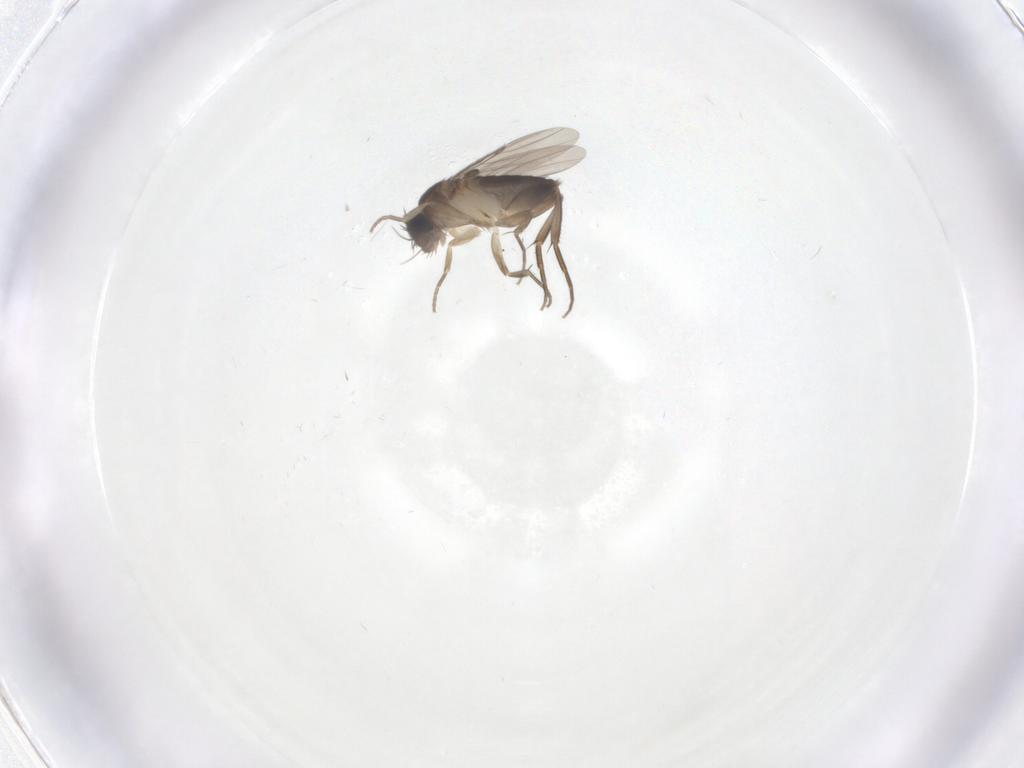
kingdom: Animalia
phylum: Arthropoda
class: Insecta
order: Diptera
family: Phoridae
